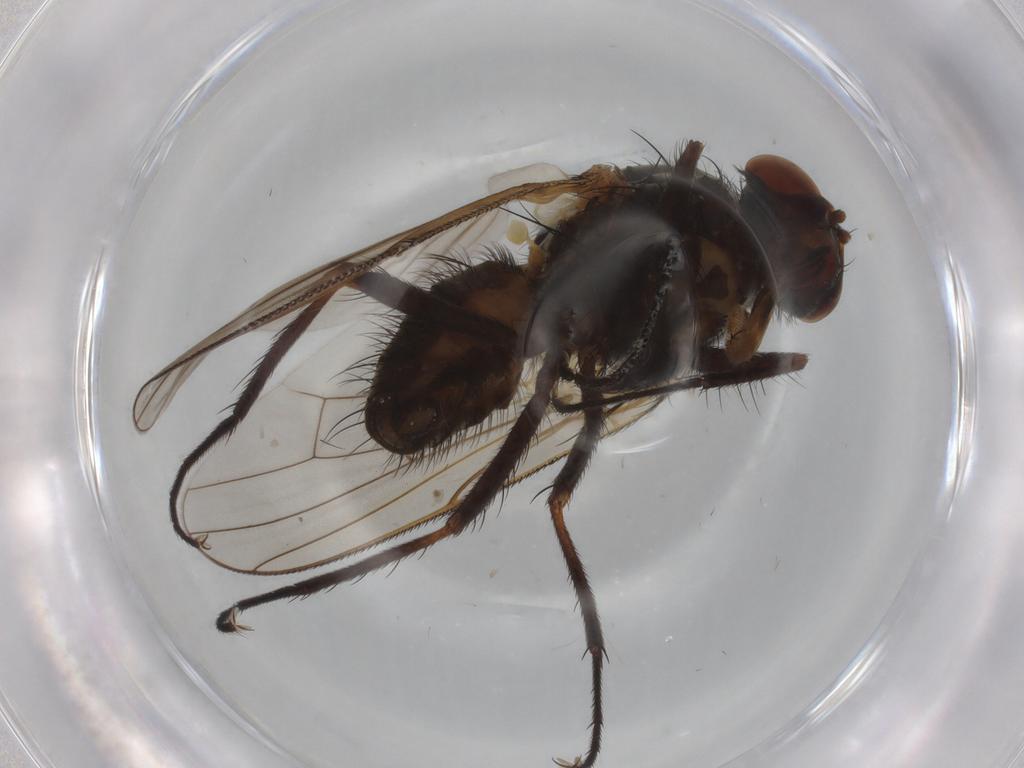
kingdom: Animalia
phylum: Arthropoda
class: Insecta
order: Diptera
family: Anthomyiidae
